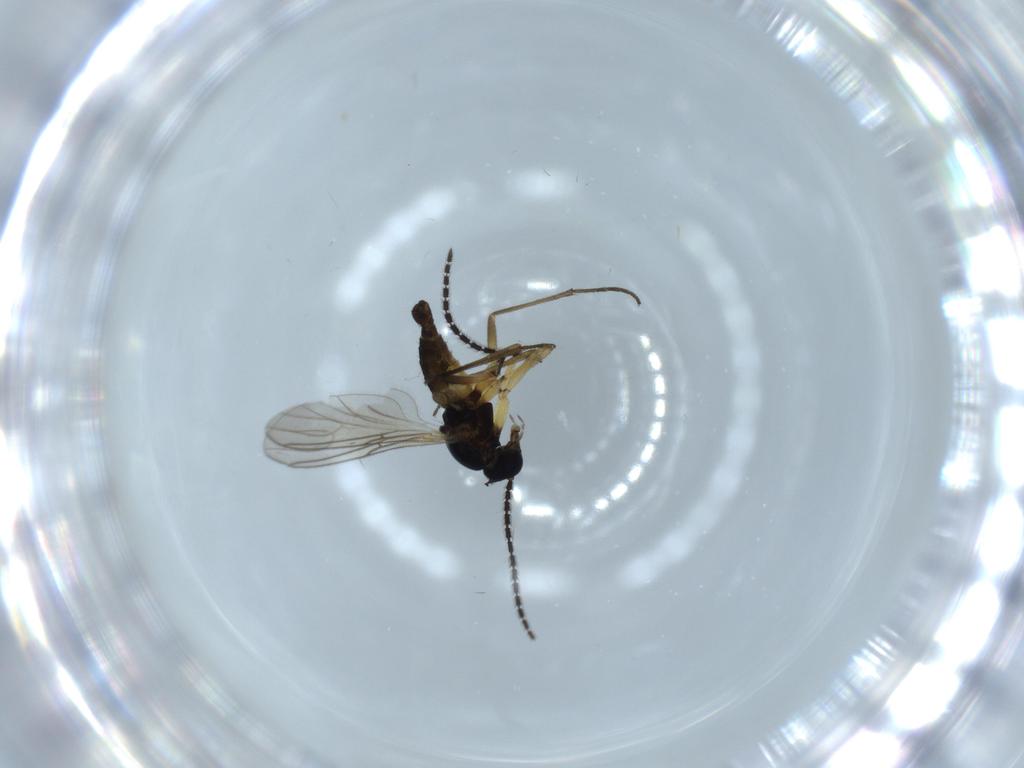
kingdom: Animalia
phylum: Arthropoda
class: Insecta
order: Diptera
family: Sciaridae
